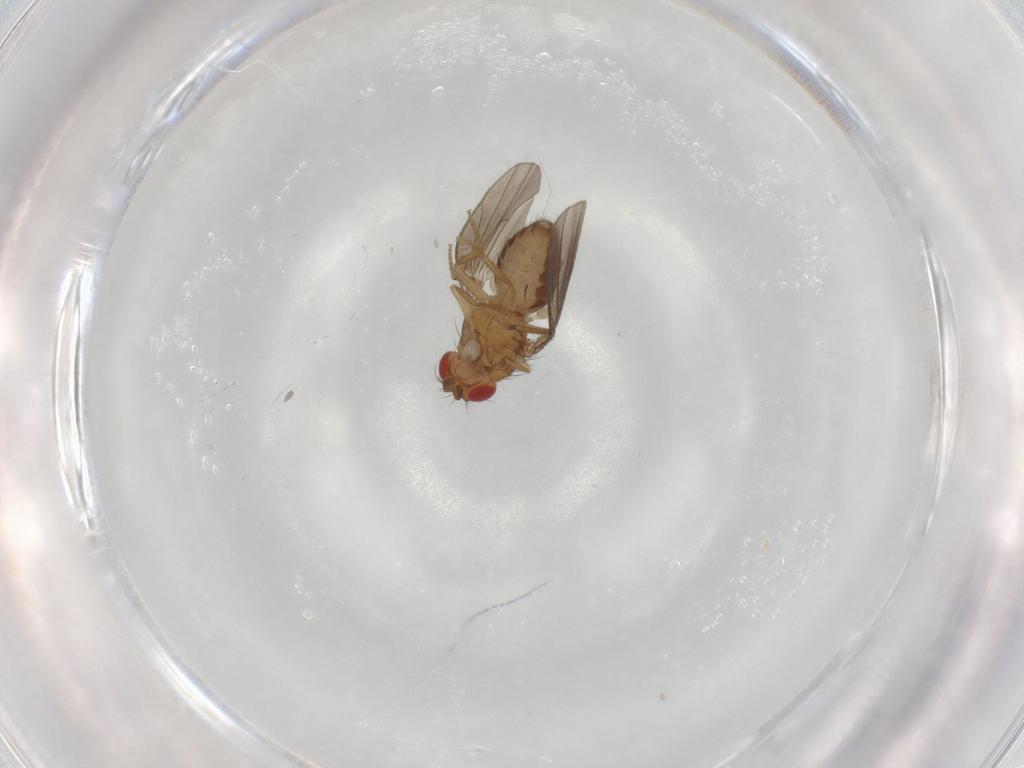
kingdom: Animalia
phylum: Arthropoda
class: Insecta
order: Diptera
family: Drosophilidae
